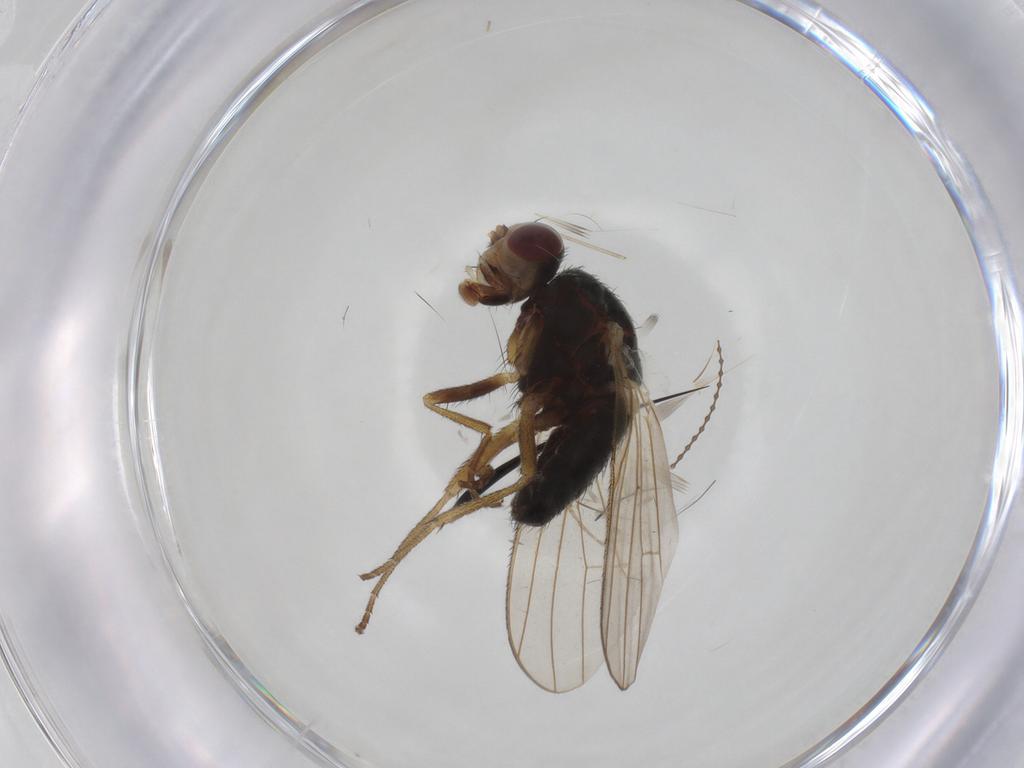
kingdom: Animalia
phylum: Arthropoda
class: Insecta
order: Diptera
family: Heleomyzidae
